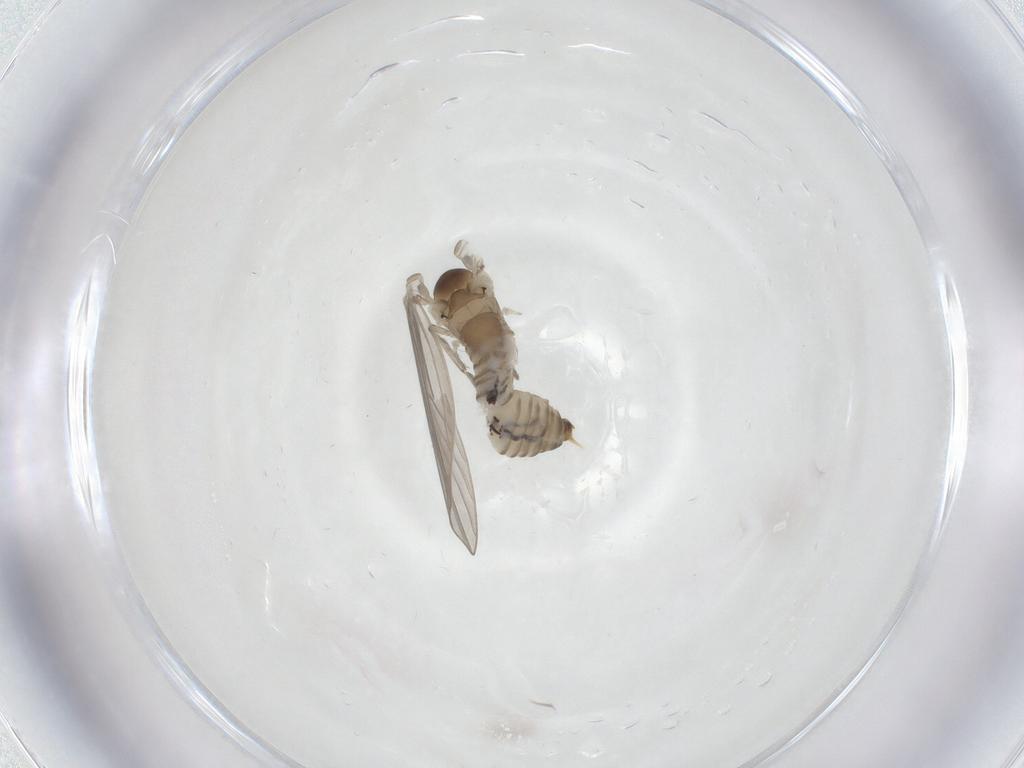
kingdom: Animalia
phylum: Arthropoda
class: Insecta
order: Diptera
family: Psychodidae
